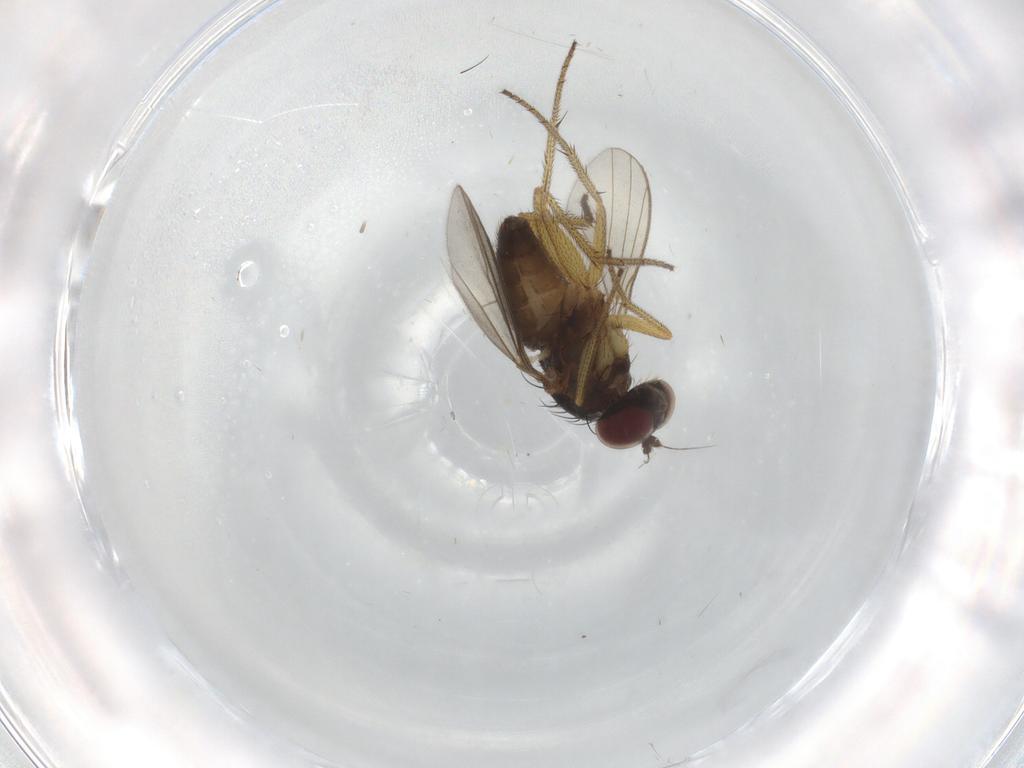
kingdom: Animalia
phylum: Arthropoda
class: Insecta
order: Diptera
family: Dolichopodidae
